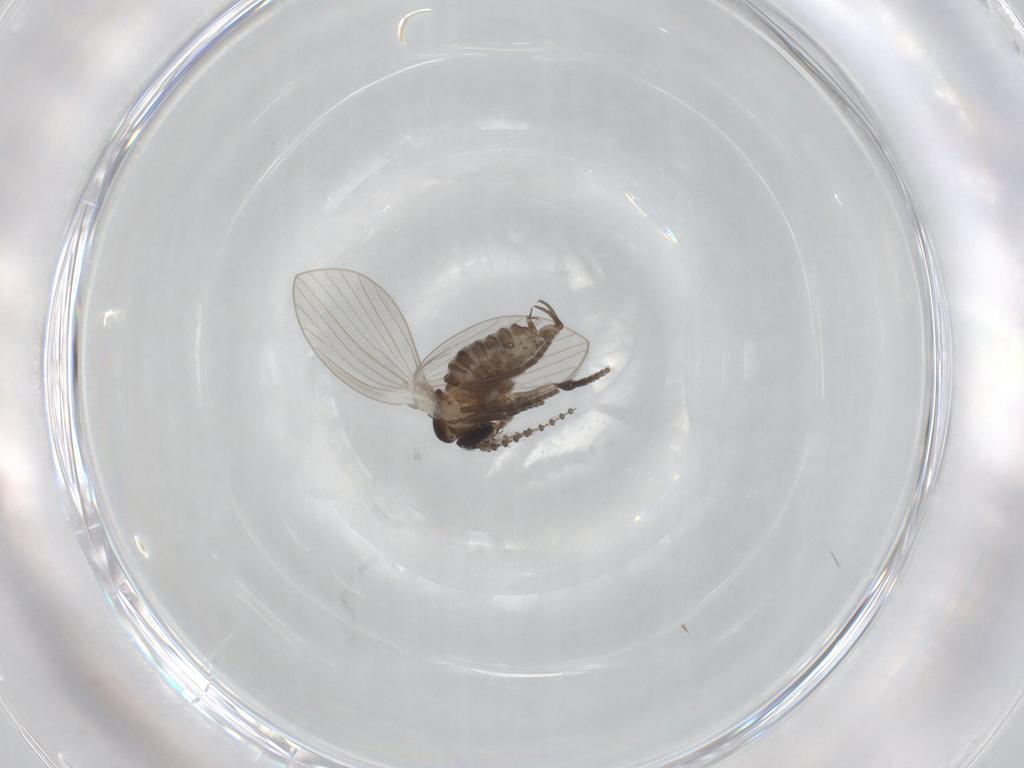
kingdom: Animalia
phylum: Arthropoda
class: Insecta
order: Diptera
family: Psychodidae
